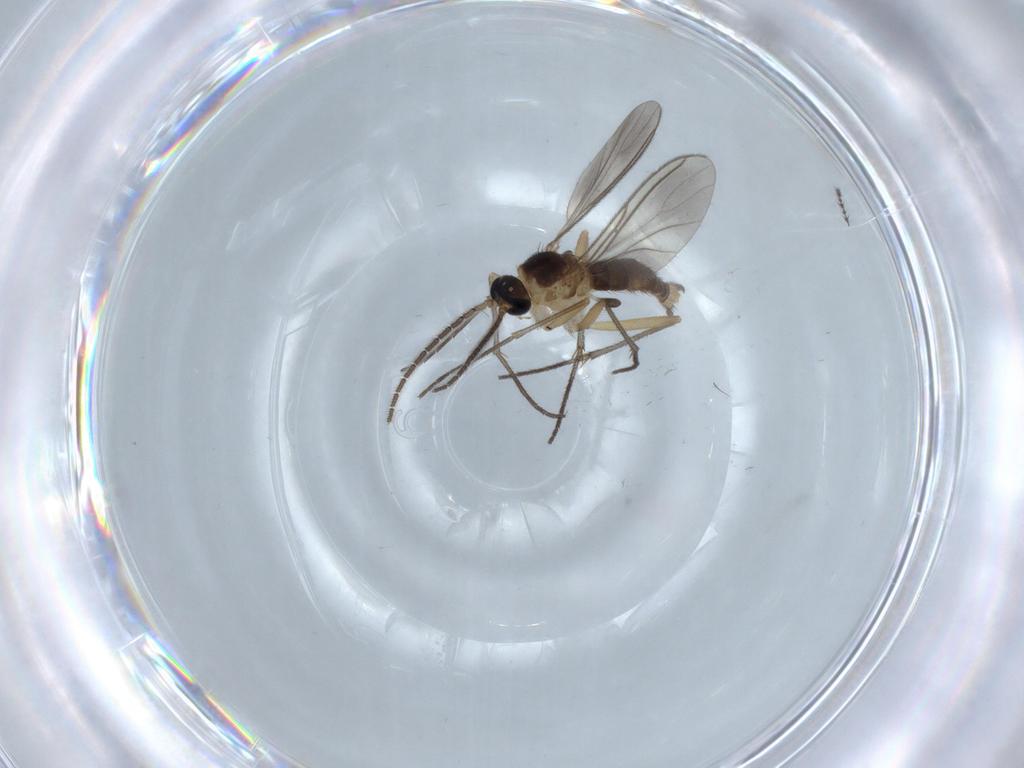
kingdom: Animalia
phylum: Arthropoda
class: Insecta
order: Diptera
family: Sciaridae
